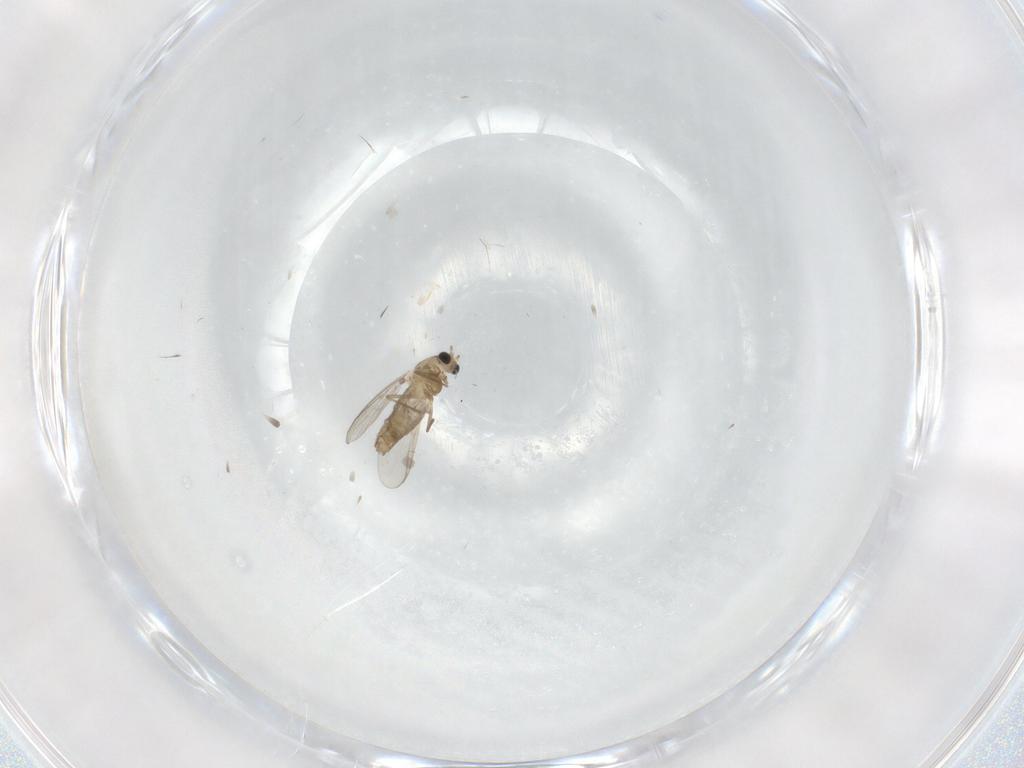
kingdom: Animalia
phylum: Arthropoda
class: Insecta
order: Diptera
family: Chironomidae
